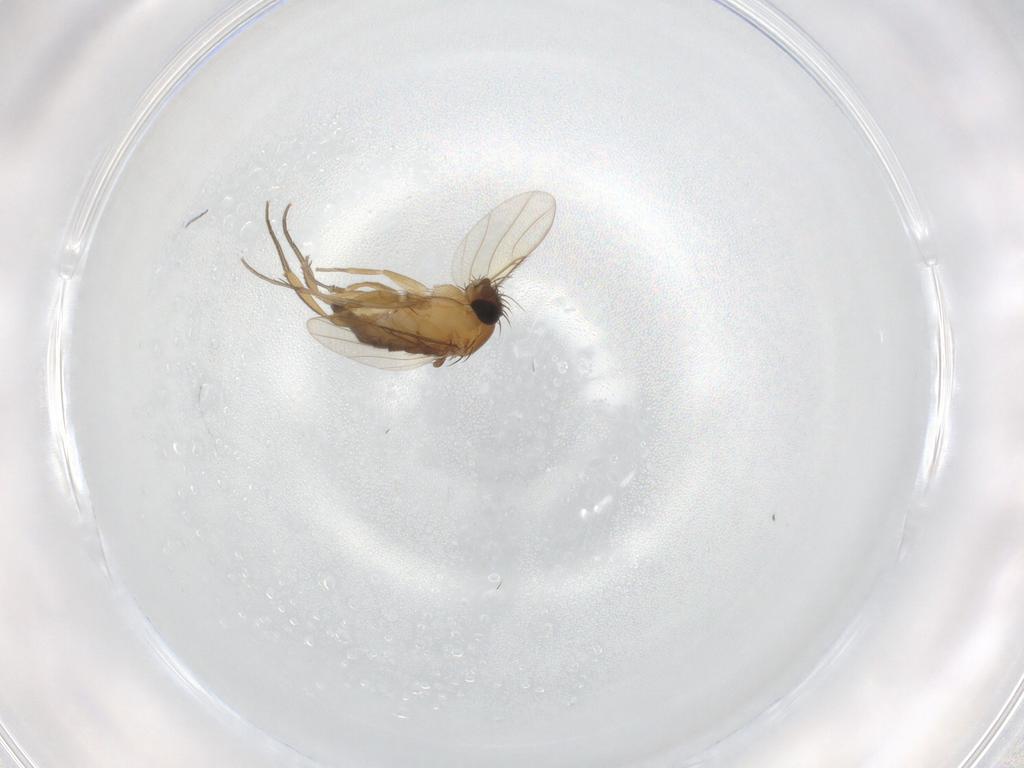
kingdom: Animalia
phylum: Arthropoda
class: Insecta
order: Diptera
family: Phoridae
